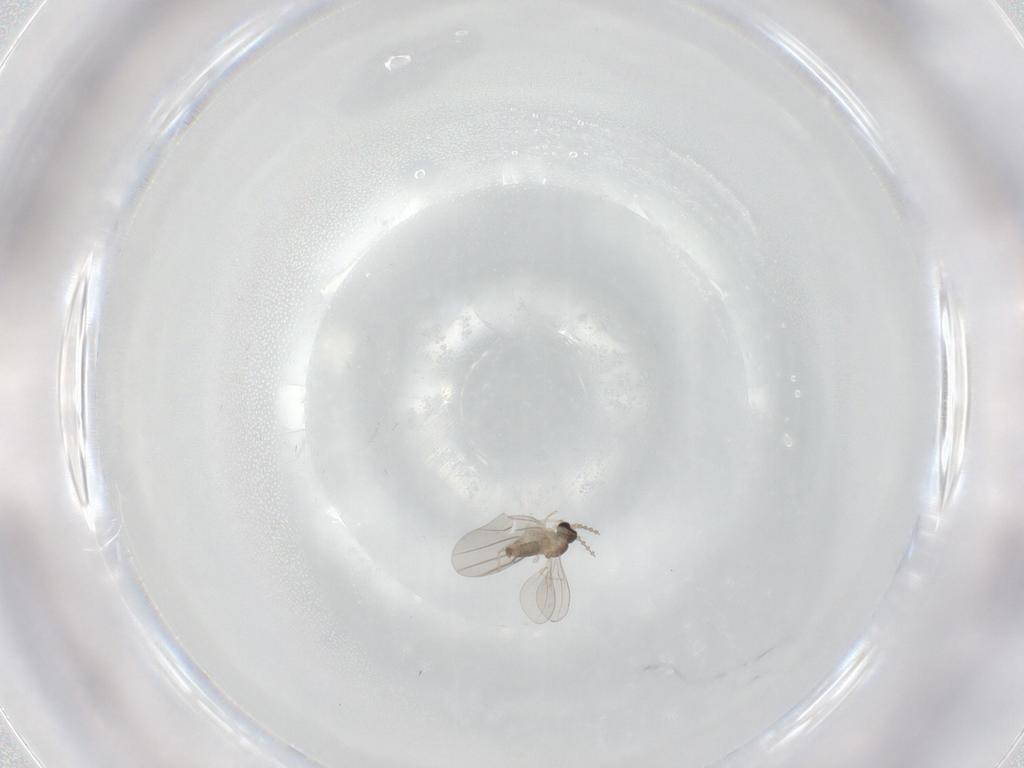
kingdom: Animalia
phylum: Arthropoda
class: Insecta
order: Diptera
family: Cecidomyiidae
